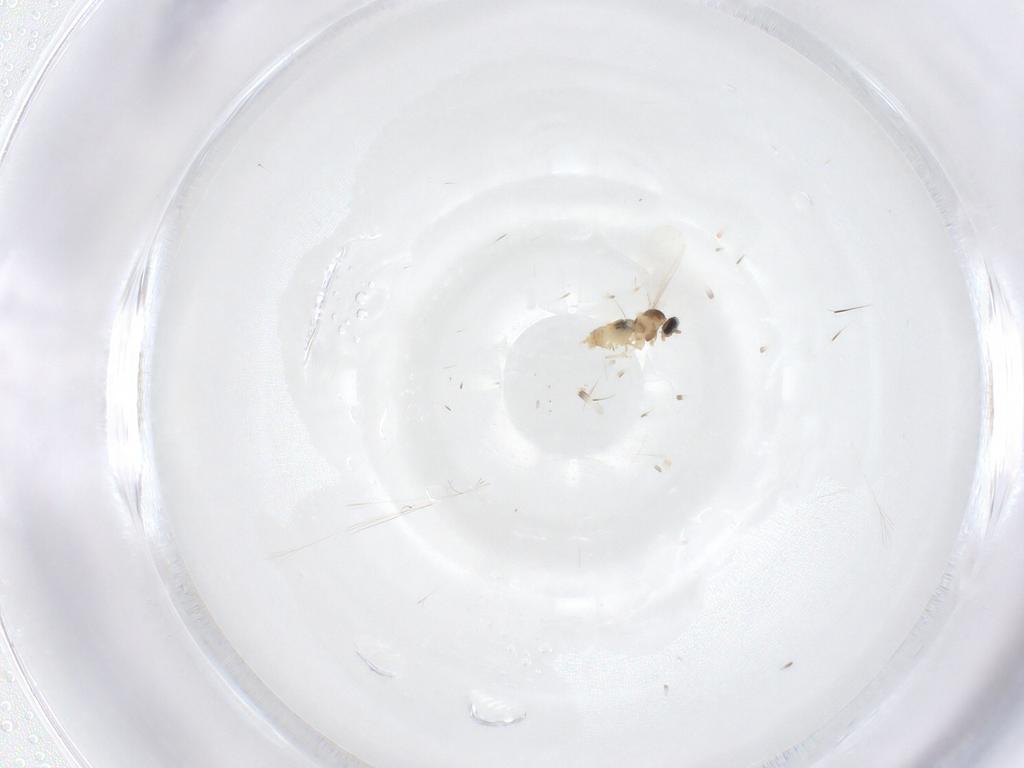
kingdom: Animalia
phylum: Arthropoda
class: Insecta
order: Diptera
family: Cecidomyiidae
